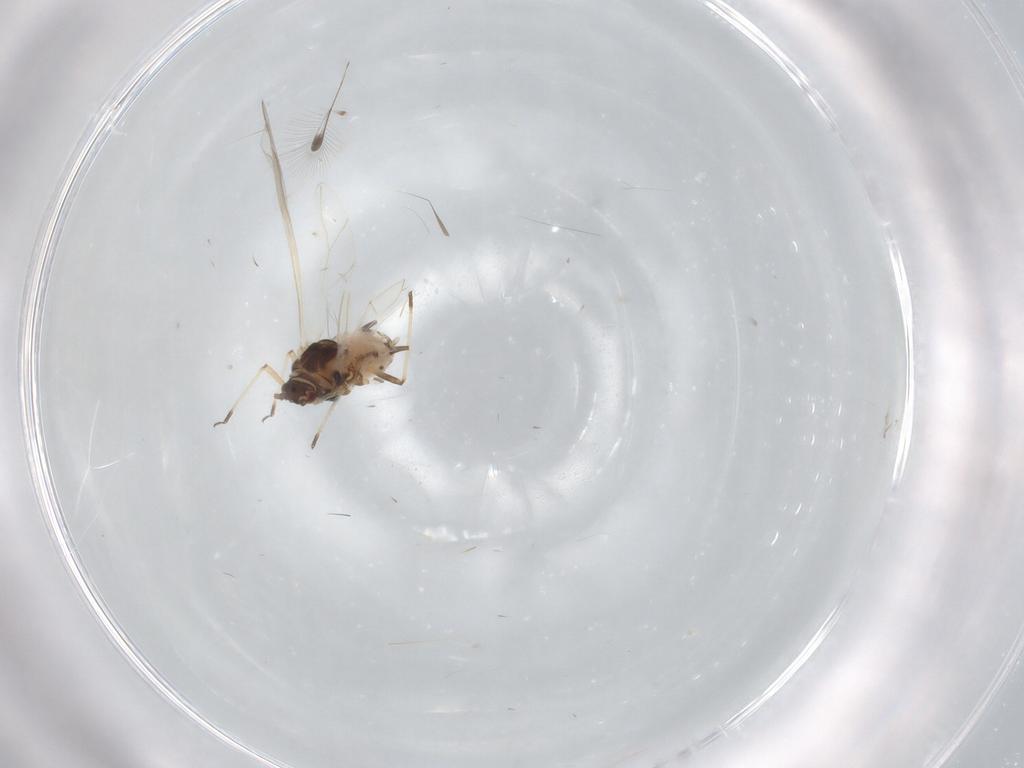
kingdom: Animalia
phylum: Arthropoda
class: Insecta
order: Hemiptera
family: Aphididae
